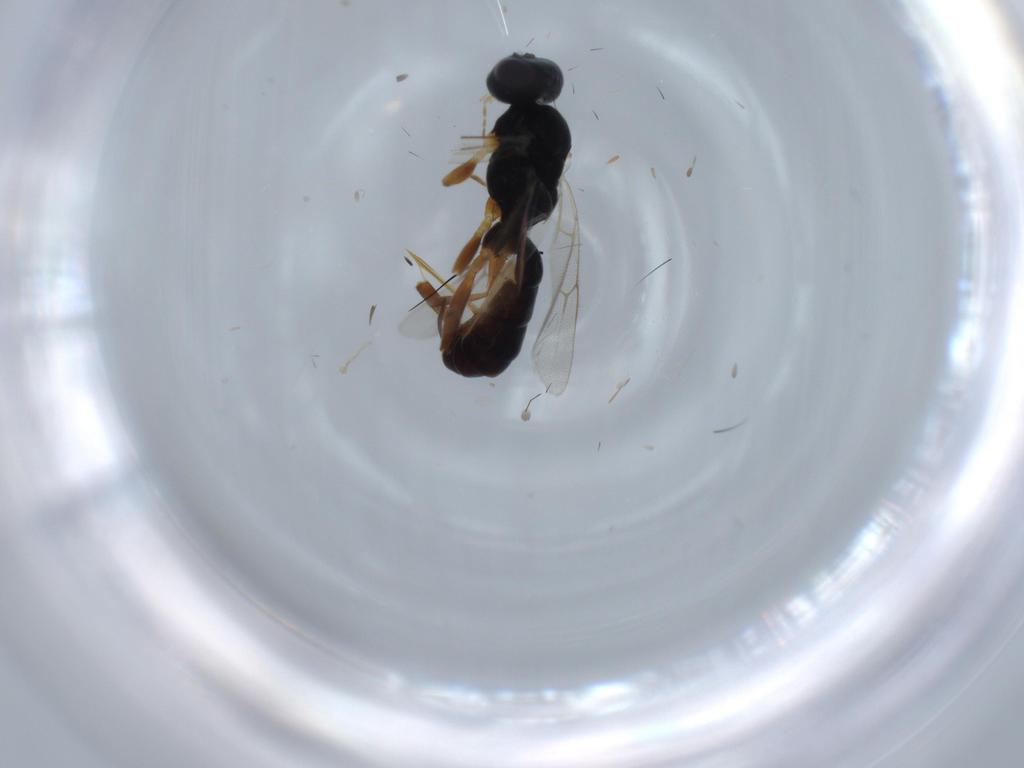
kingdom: Animalia
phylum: Arthropoda
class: Insecta
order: Hymenoptera
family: Ichneumonidae
